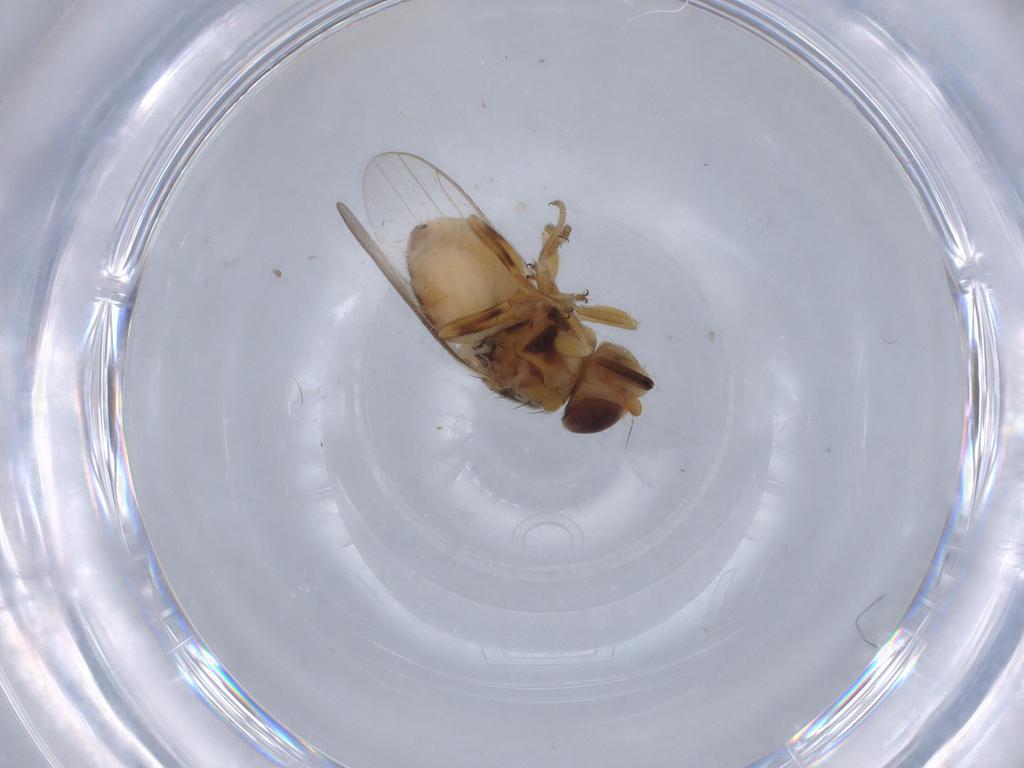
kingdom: Animalia
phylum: Arthropoda
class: Insecta
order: Diptera
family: Chloropidae
